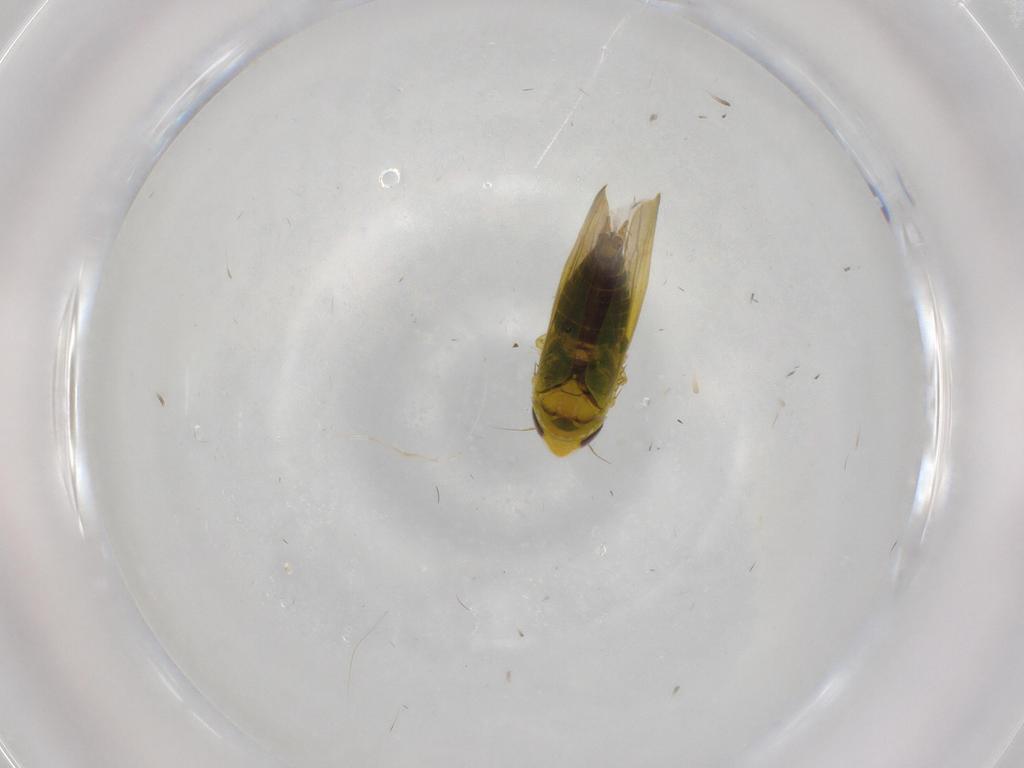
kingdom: Animalia
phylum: Arthropoda
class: Insecta
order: Hemiptera
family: Cicadellidae
